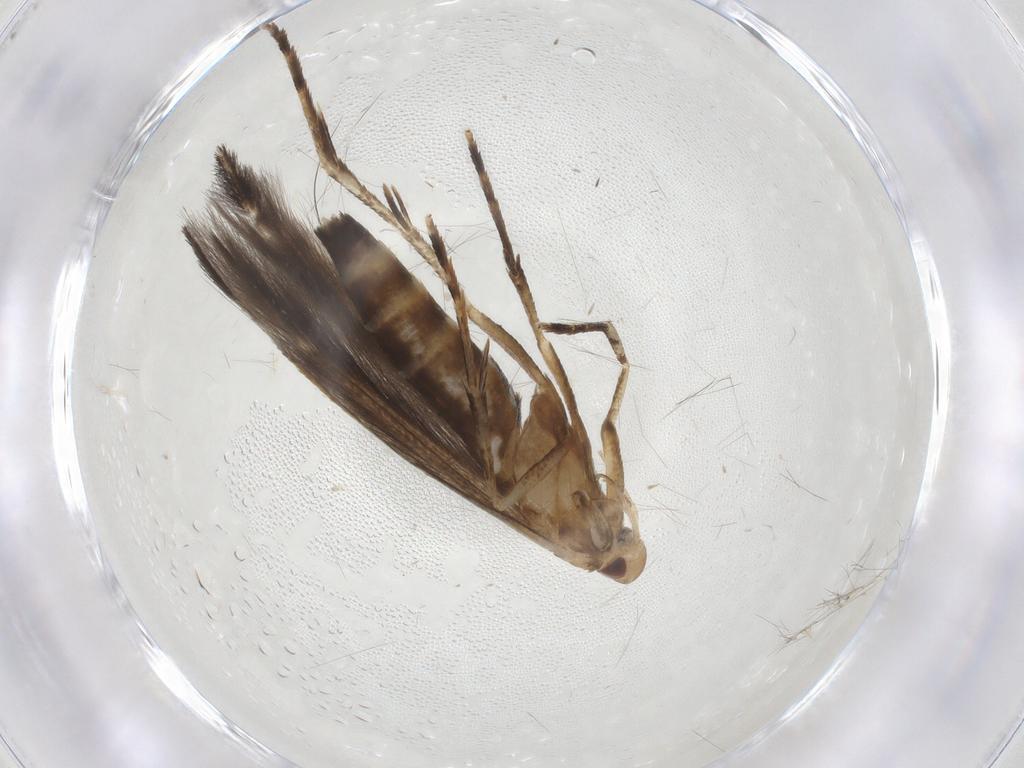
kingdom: Animalia
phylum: Arthropoda
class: Insecta
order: Lepidoptera
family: Cosmopterigidae
